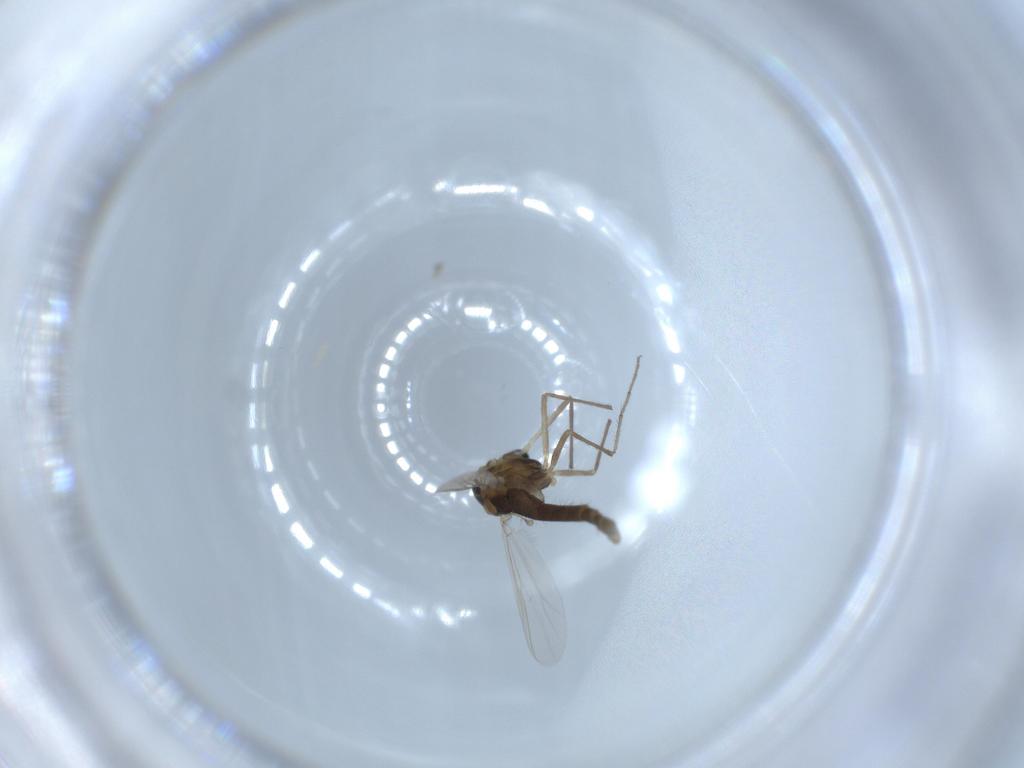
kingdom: Animalia
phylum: Arthropoda
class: Insecta
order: Diptera
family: Chironomidae
